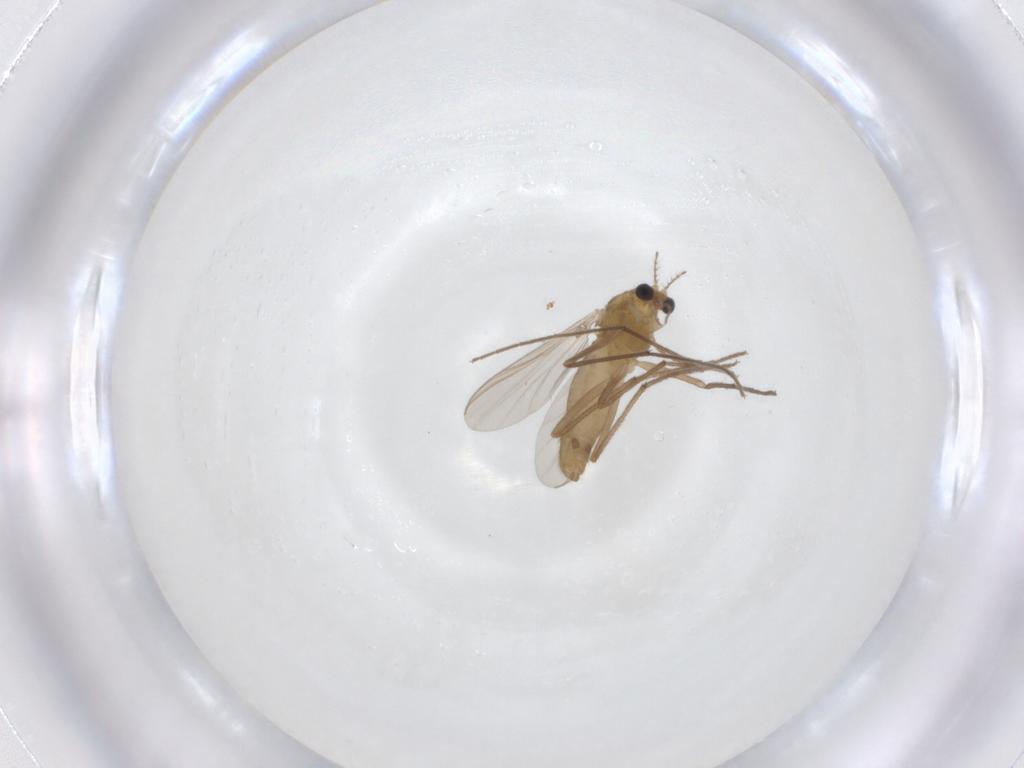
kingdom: Animalia
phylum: Arthropoda
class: Insecta
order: Diptera
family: Chironomidae
